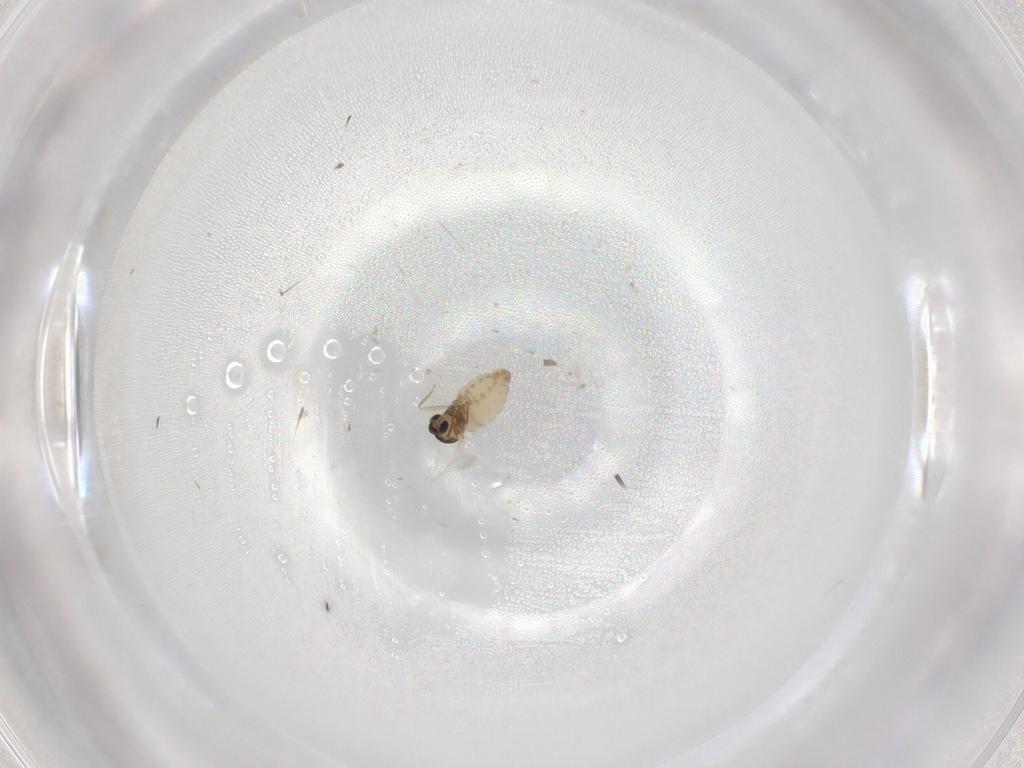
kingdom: Animalia
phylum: Arthropoda
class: Insecta
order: Diptera
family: Cecidomyiidae
